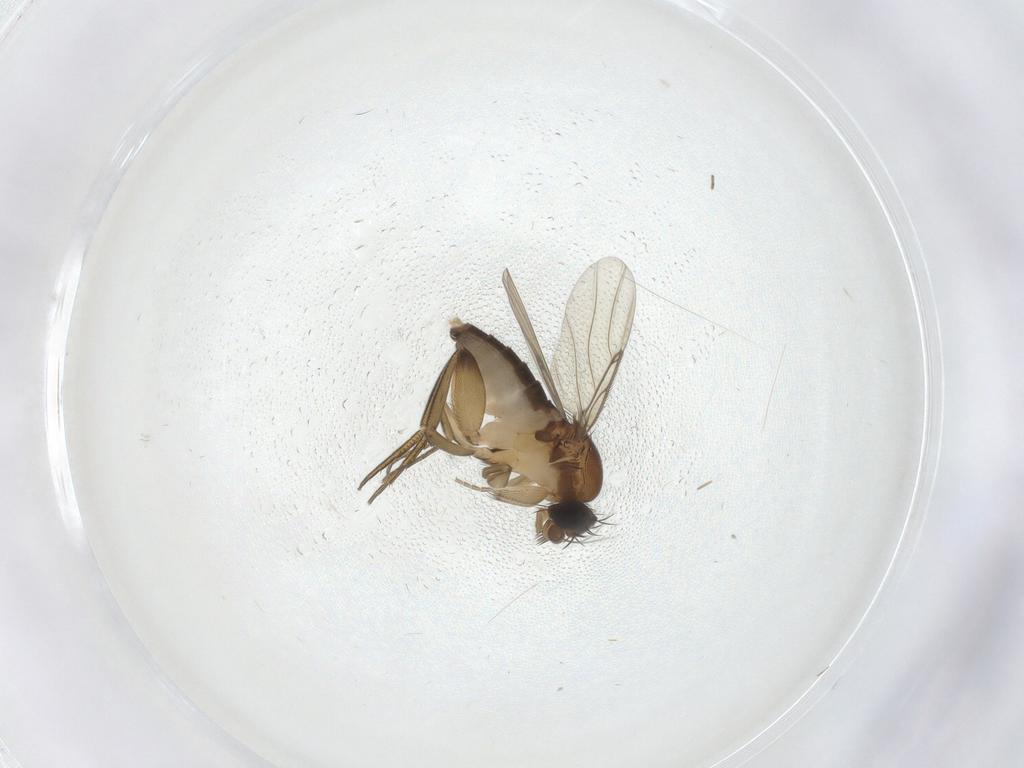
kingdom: Animalia
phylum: Arthropoda
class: Insecta
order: Diptera
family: Phoridae
